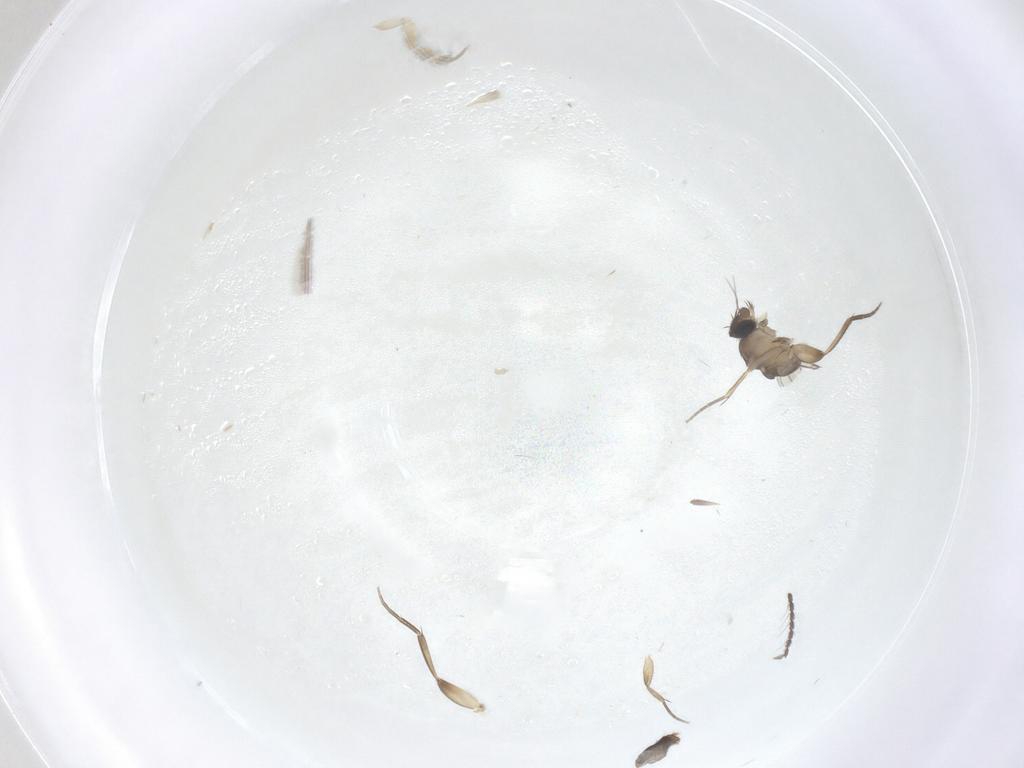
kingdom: Animalia
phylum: Arthropoda
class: Insecta
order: Diptera
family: Cecidomyiidae
